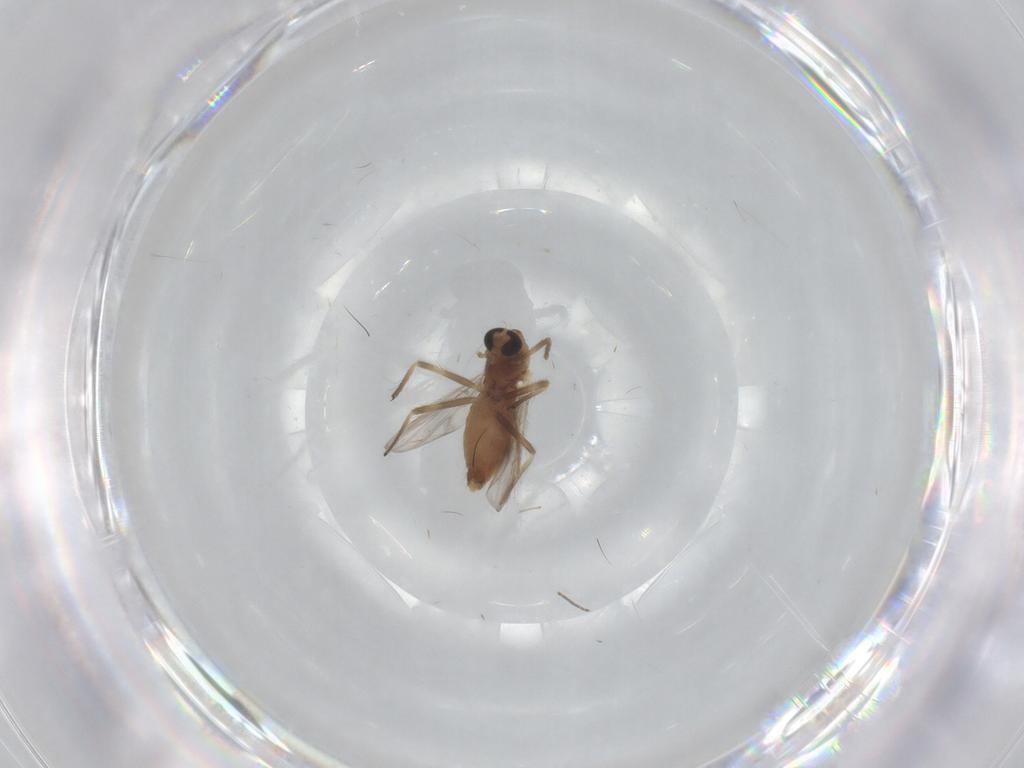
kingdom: Animalia
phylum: Arthropoda
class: Insecta
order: Diptera
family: Chironomidae
